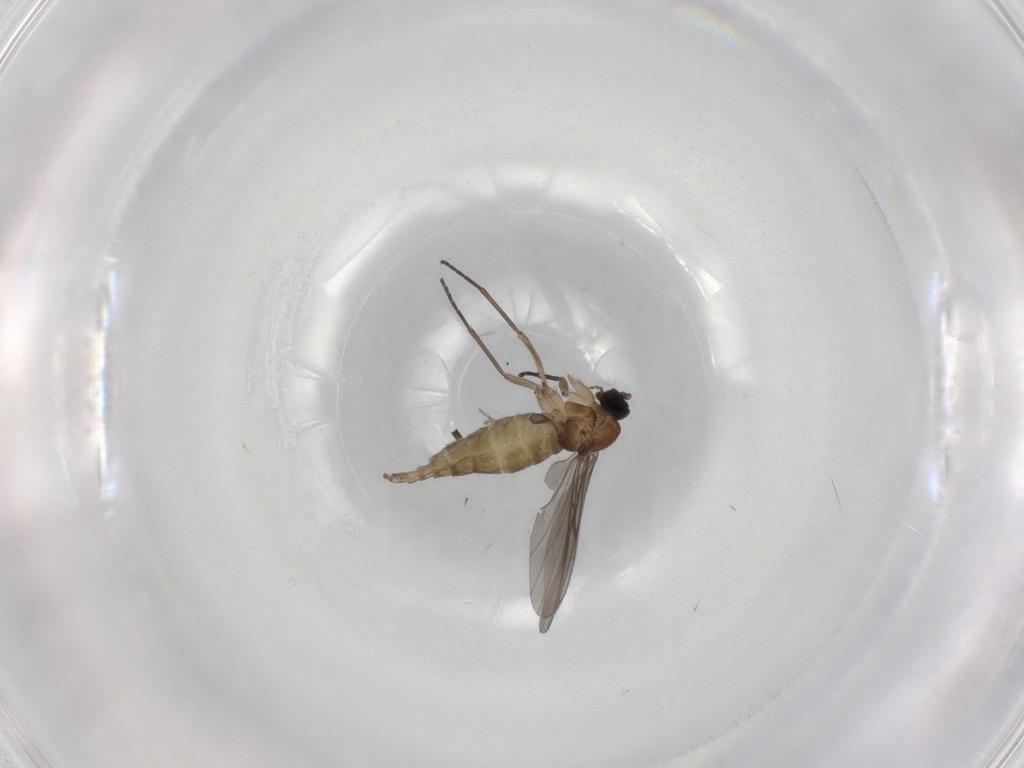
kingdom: Animalia
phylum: Arthropoda
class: Insecta
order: Diptera
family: Sciaridae
